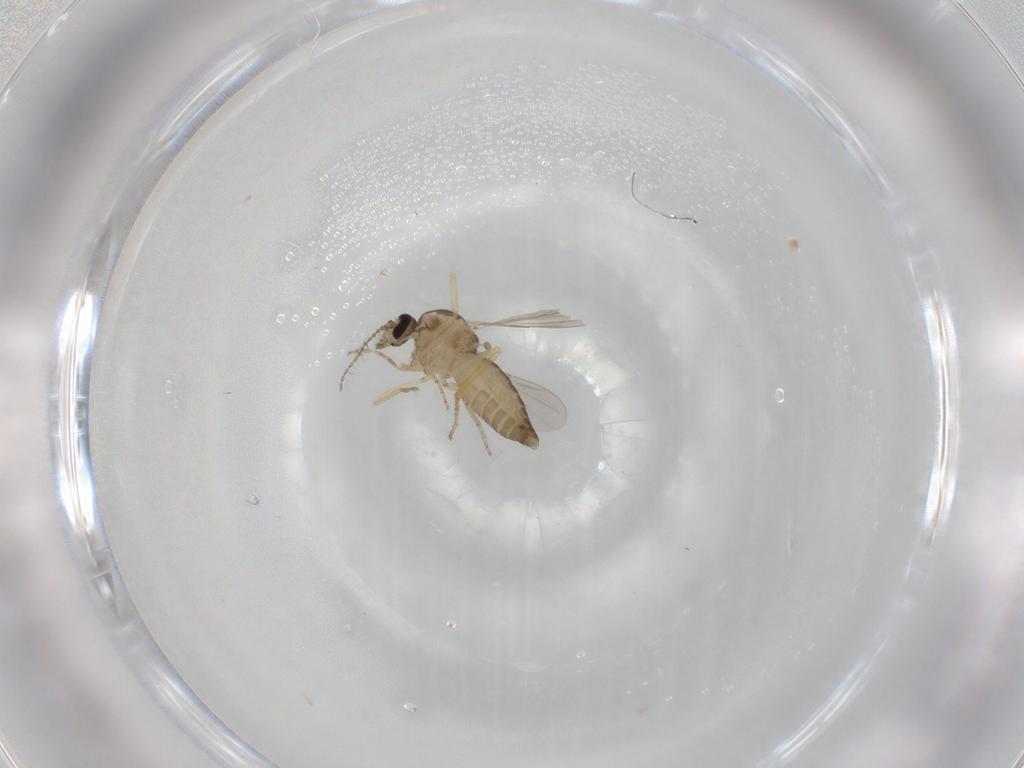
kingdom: Animalia
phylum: Arthropoda
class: Insecta
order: Diptera
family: Ceratopogonidae
